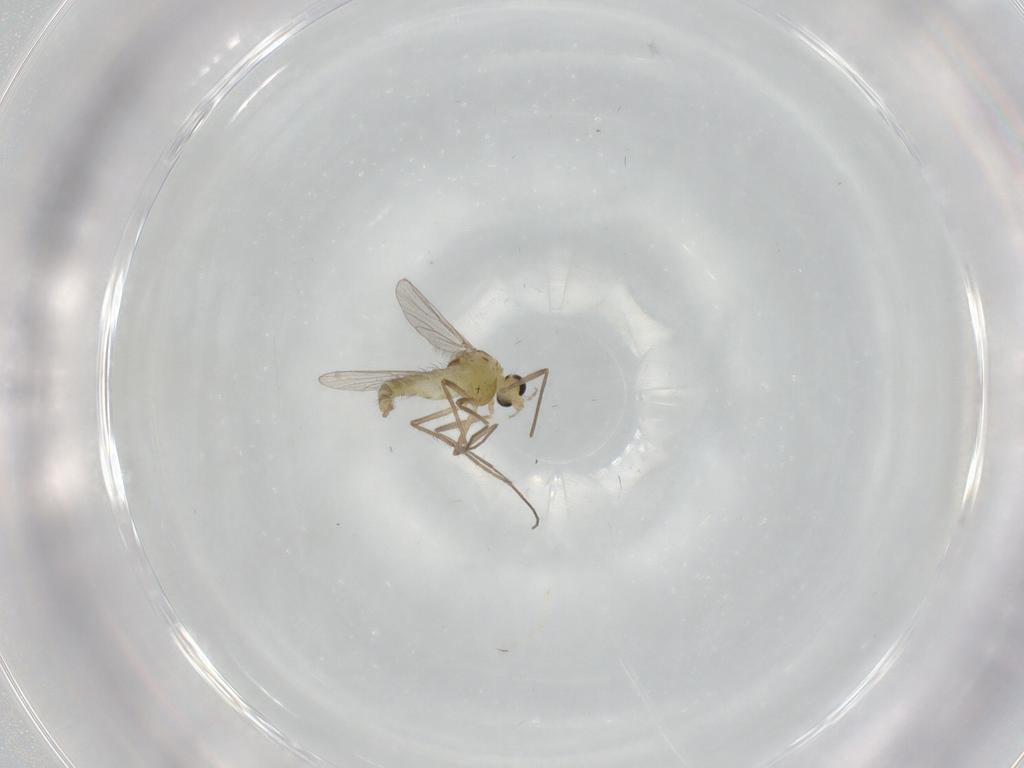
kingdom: Animalia
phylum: Arthropoda
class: Insecta
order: Diptera
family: Chironomidae
